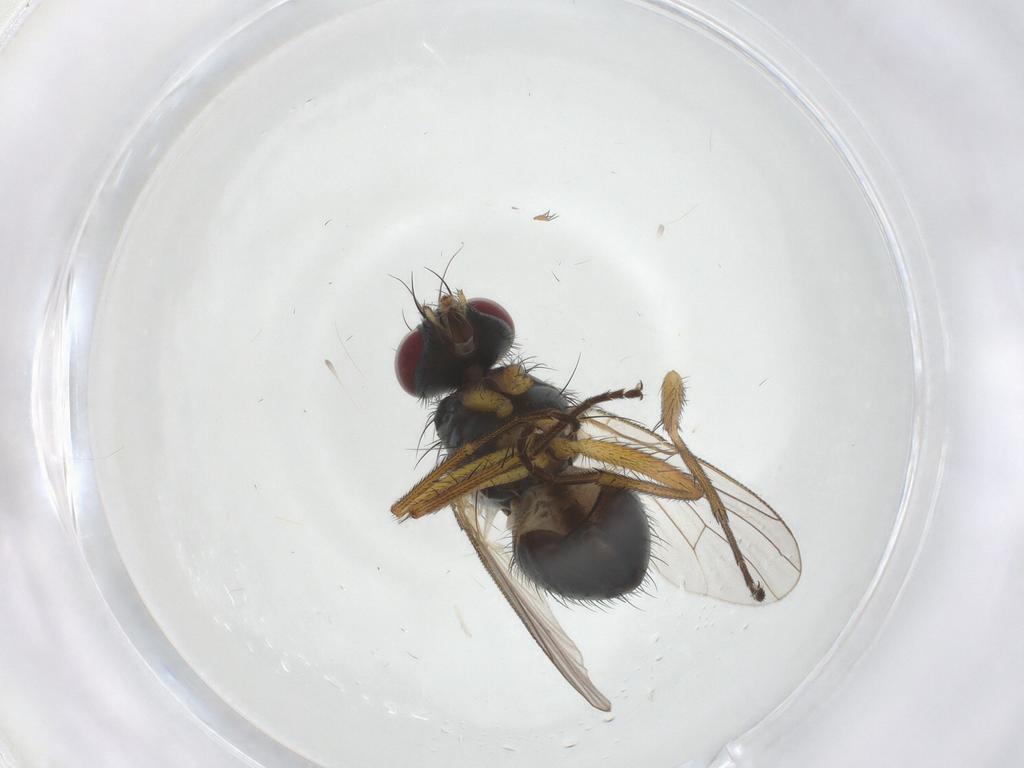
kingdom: Animalia
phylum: Arthropoda
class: Insecta
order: Diptera
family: Muscidae
